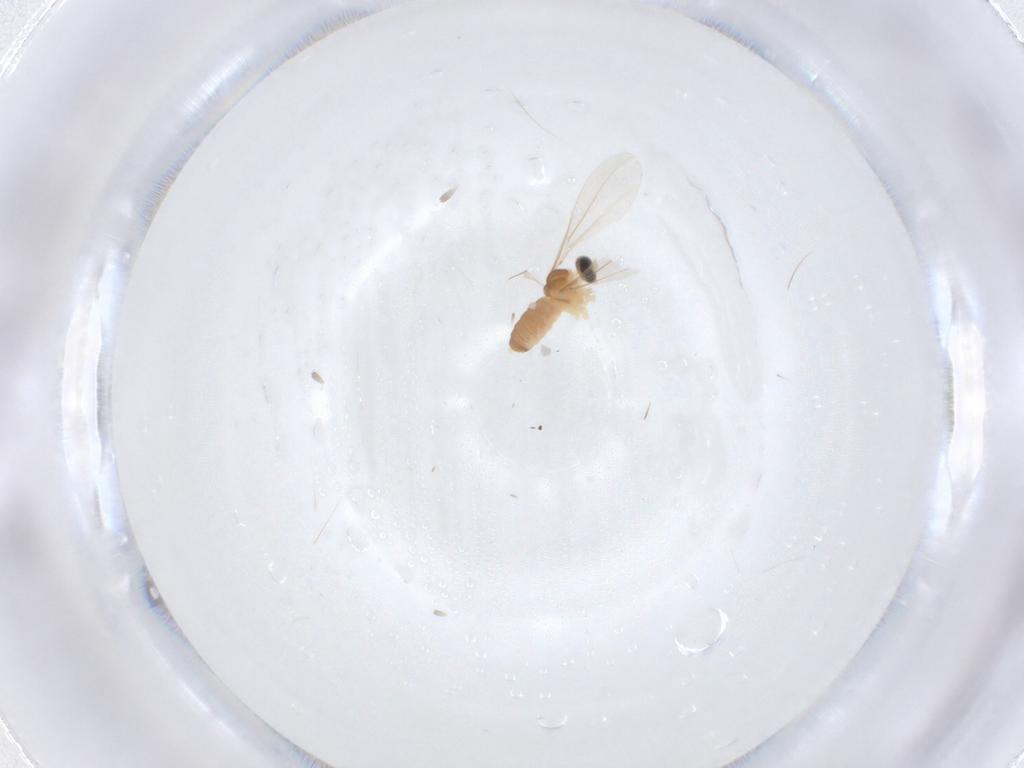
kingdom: Animalia
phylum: Arthropoda
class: Insecta
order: Diptera
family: Cecidomyiidae
